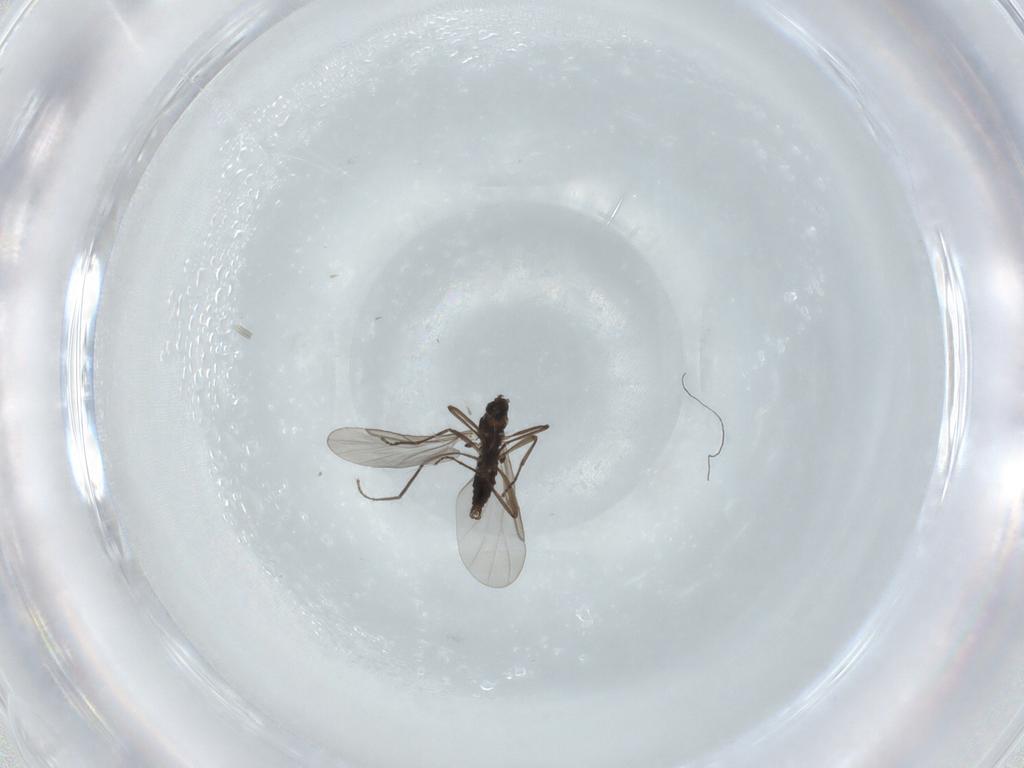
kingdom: Animalia
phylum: Arthropoda
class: Insecta
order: Diptera
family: Cecidomyiidae
